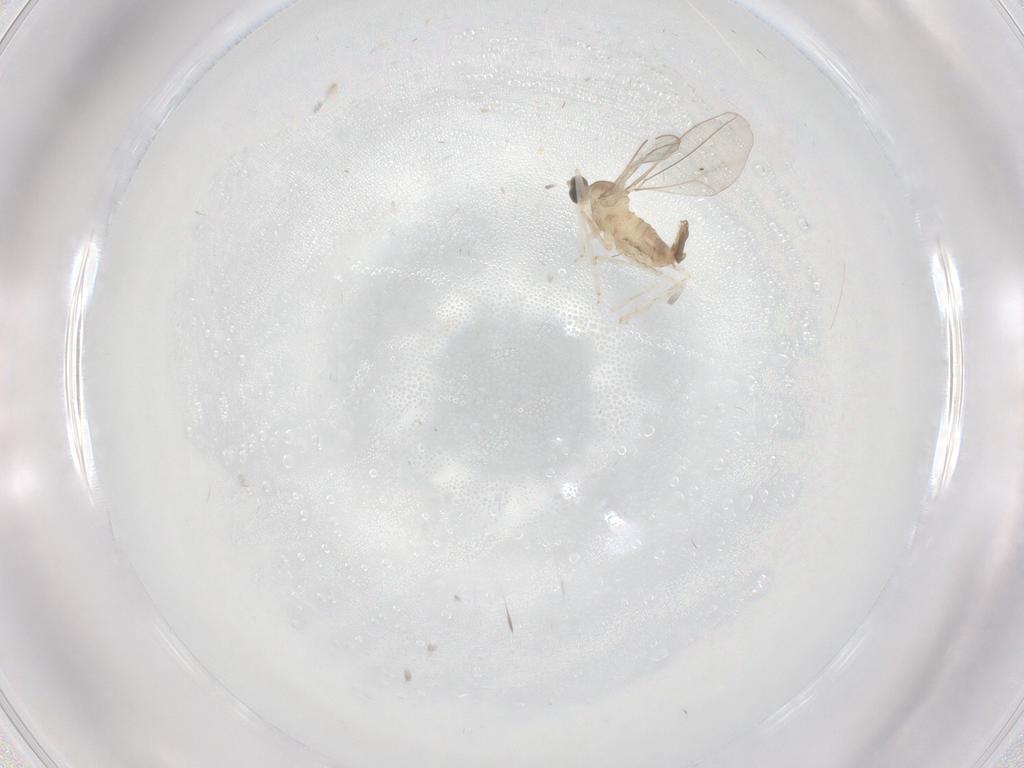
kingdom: Animalia
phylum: Arthropoda
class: Insecta
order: Diptera
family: Cecidomyiidae
